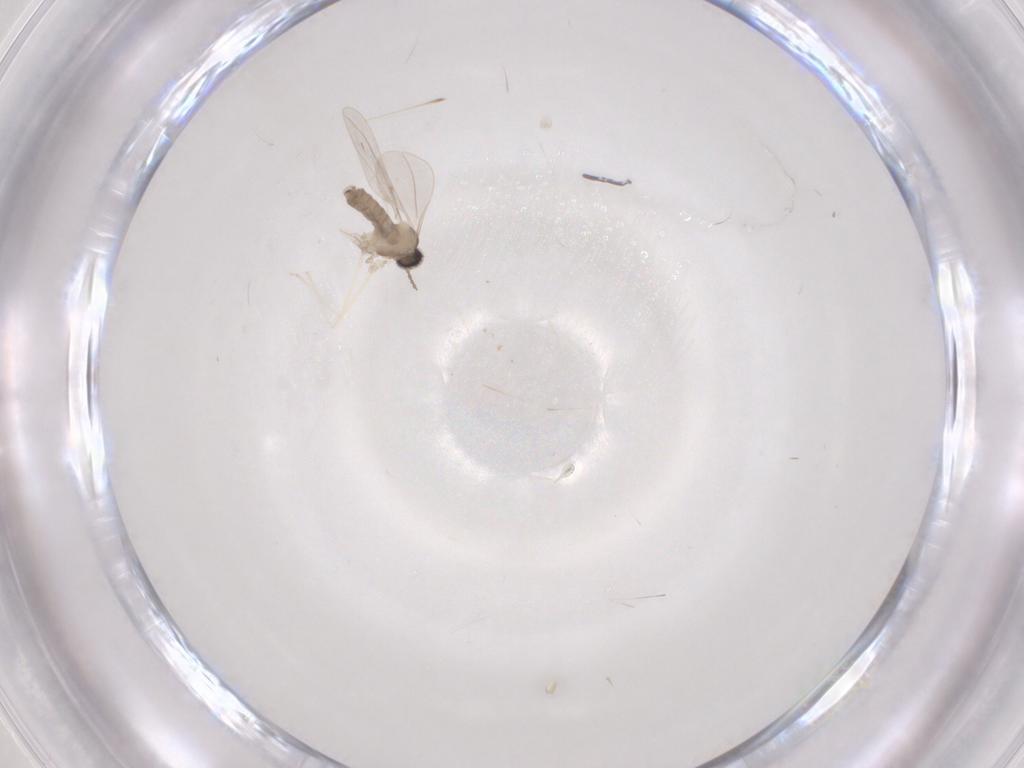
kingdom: Animalia
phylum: Arthropoda
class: Insecta
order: Diptera
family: Cecidomyiidae
